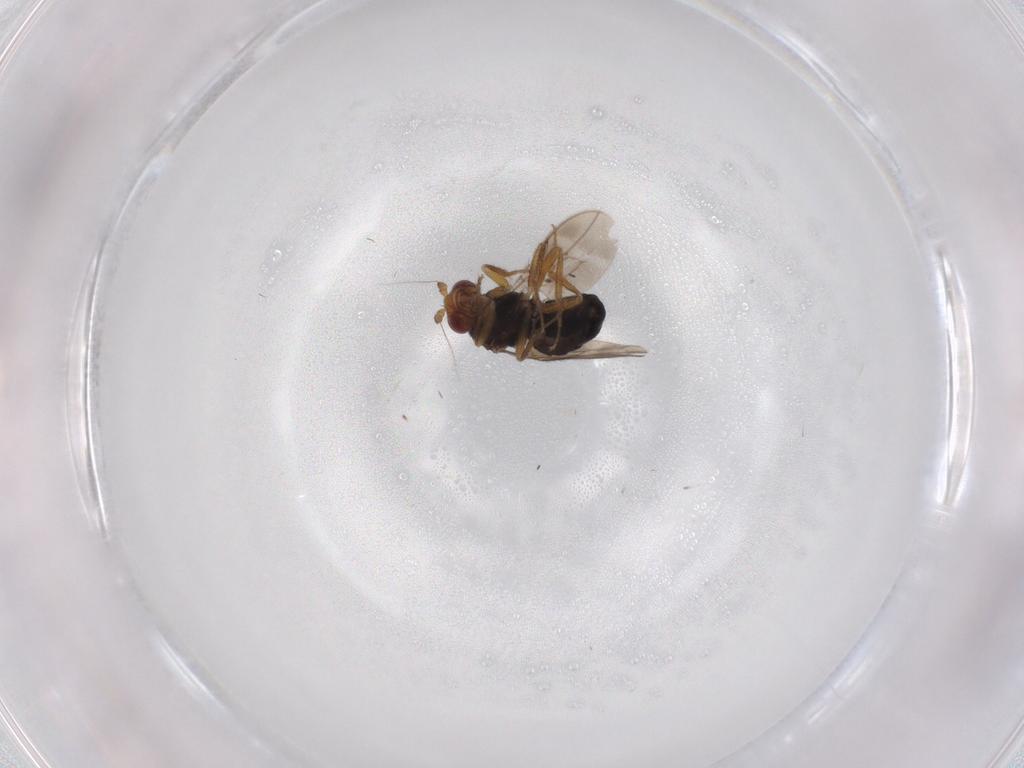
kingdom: Animalia
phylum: Arthropoda
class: Insecta
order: Diptera
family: Sphaeroceridae
